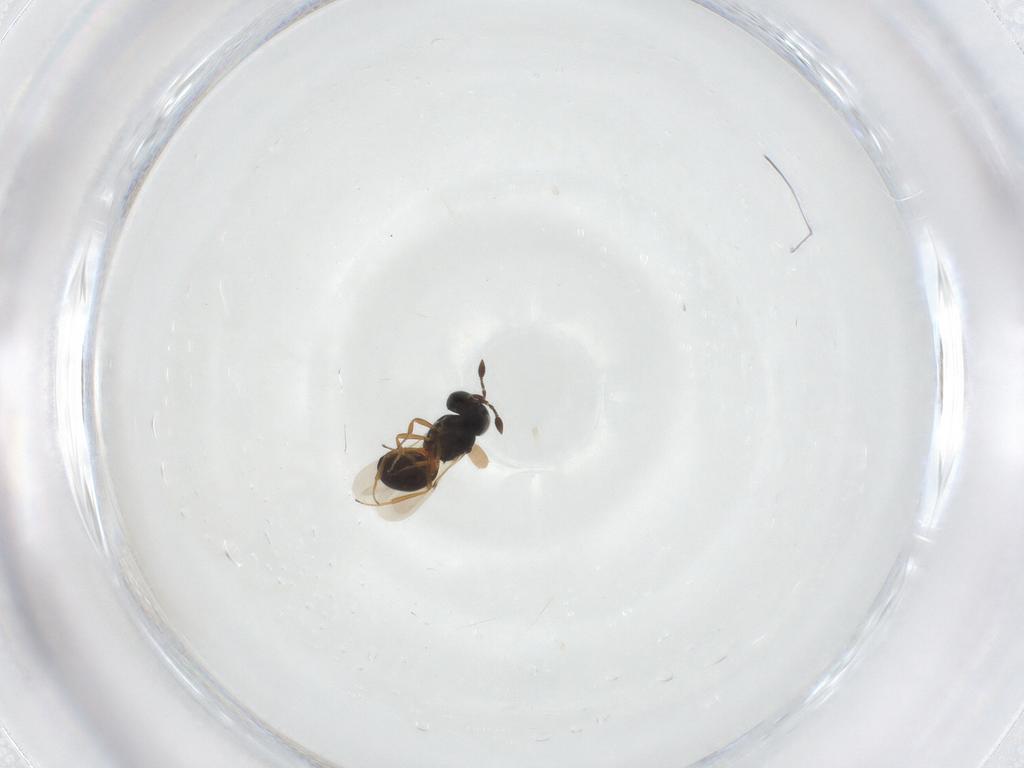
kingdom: Animalia
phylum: Arthropoda
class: Insecta
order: Hymenoptera
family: Scelionidae
